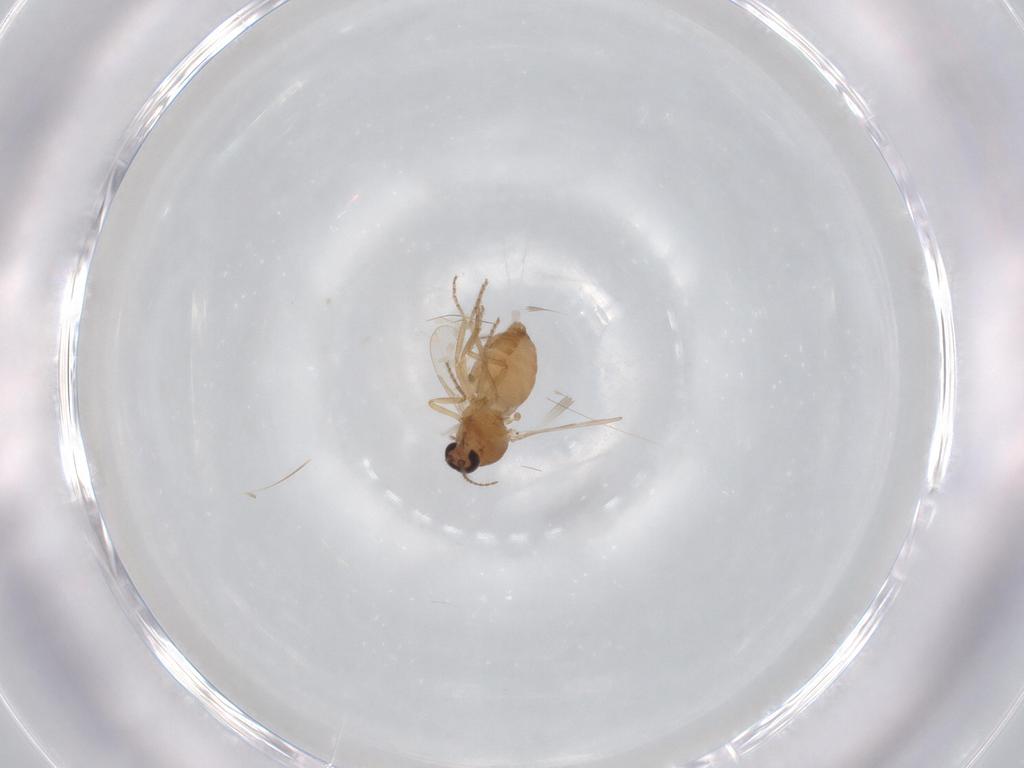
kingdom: Animalia
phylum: Arthropoda
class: Insecta
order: Diptera
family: Ceratopogonidae
